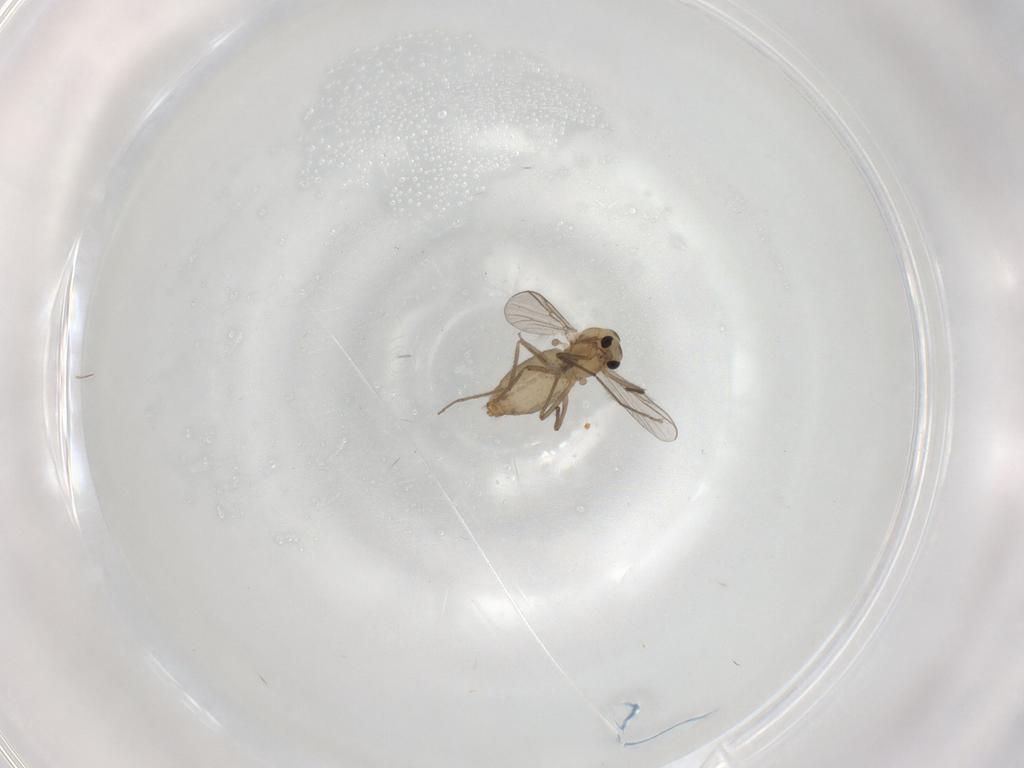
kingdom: Animalia
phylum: Arthropoda
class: Insecta
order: Diptera
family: Chironomidae
